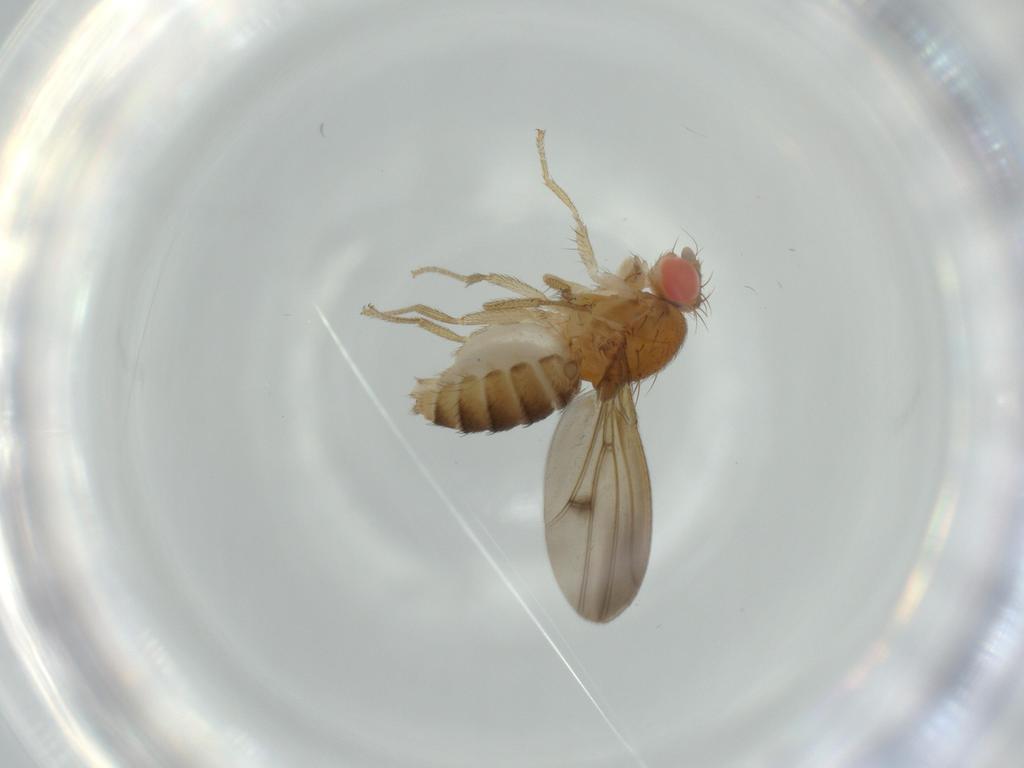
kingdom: Animalia
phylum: Arthropoda
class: Insecta
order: Diptera
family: Drosophilidae
